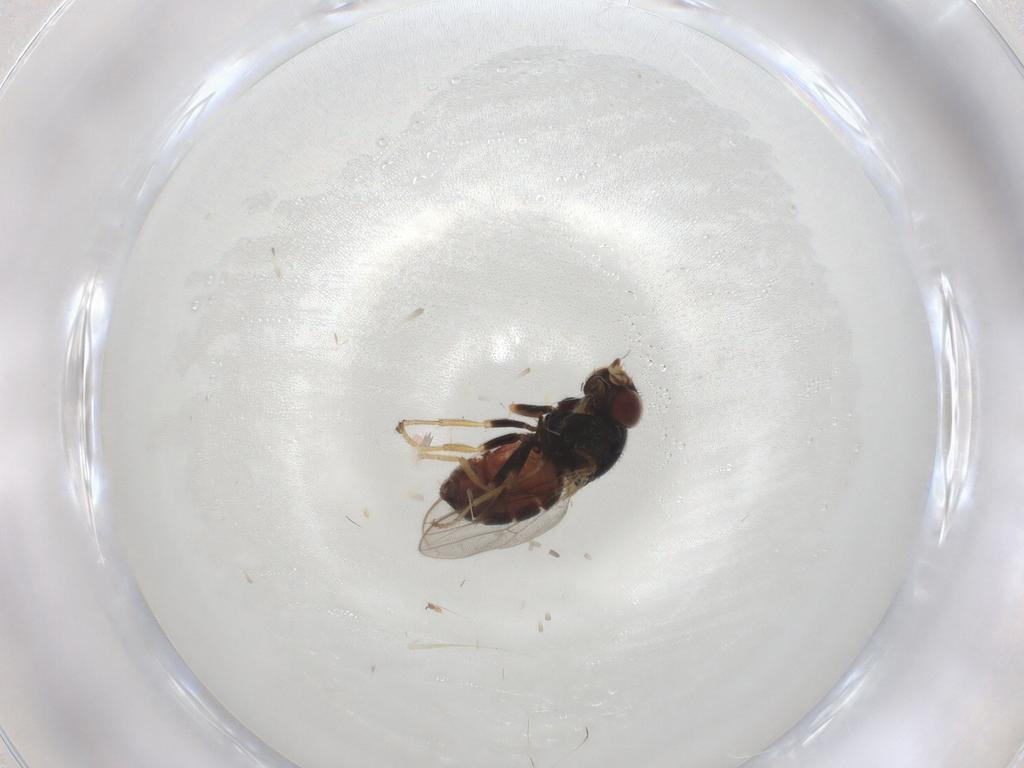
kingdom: Animalia
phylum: Arthropoda
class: Insecta
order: Diptera
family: Chloropidae
